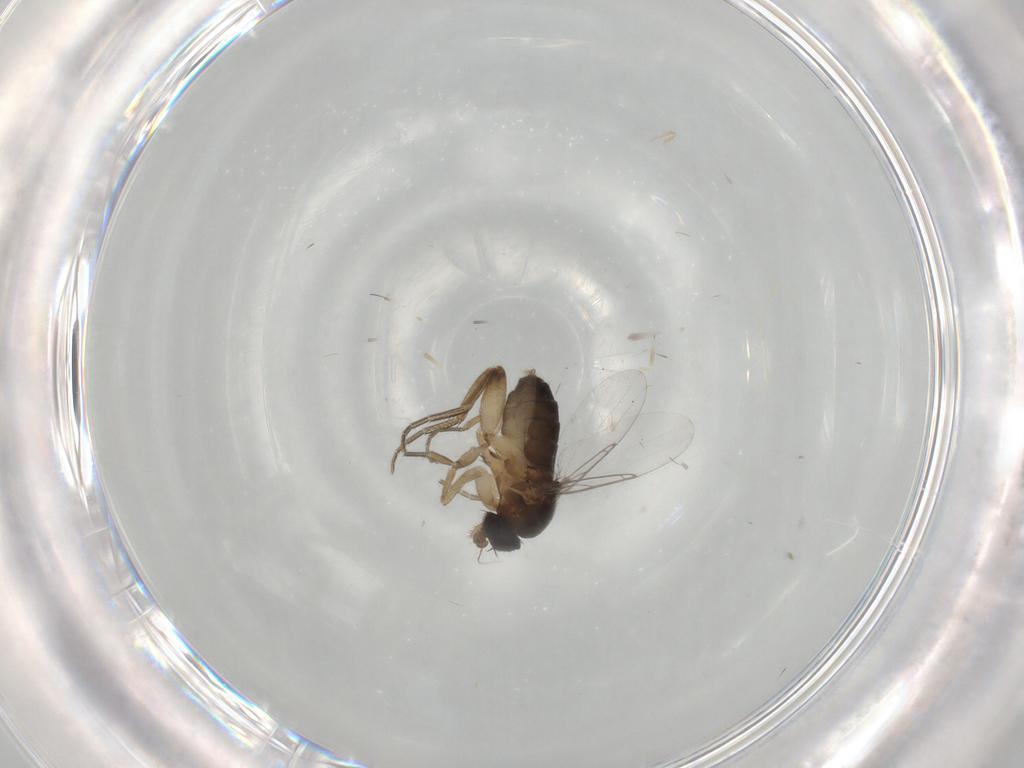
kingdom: Animalia
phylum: Arthropoda
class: Insecta
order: Diptera
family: Phoridae
